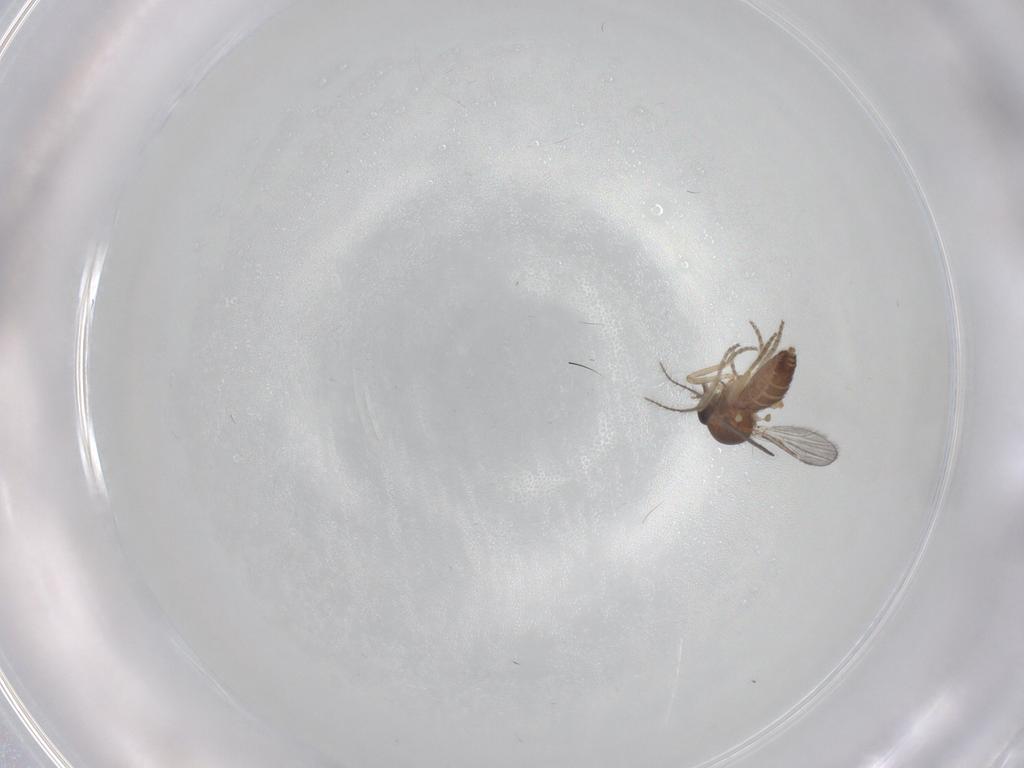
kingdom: Animalia
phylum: Arthropoda
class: Insecta
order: Diptera
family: Ceratopogonidae
